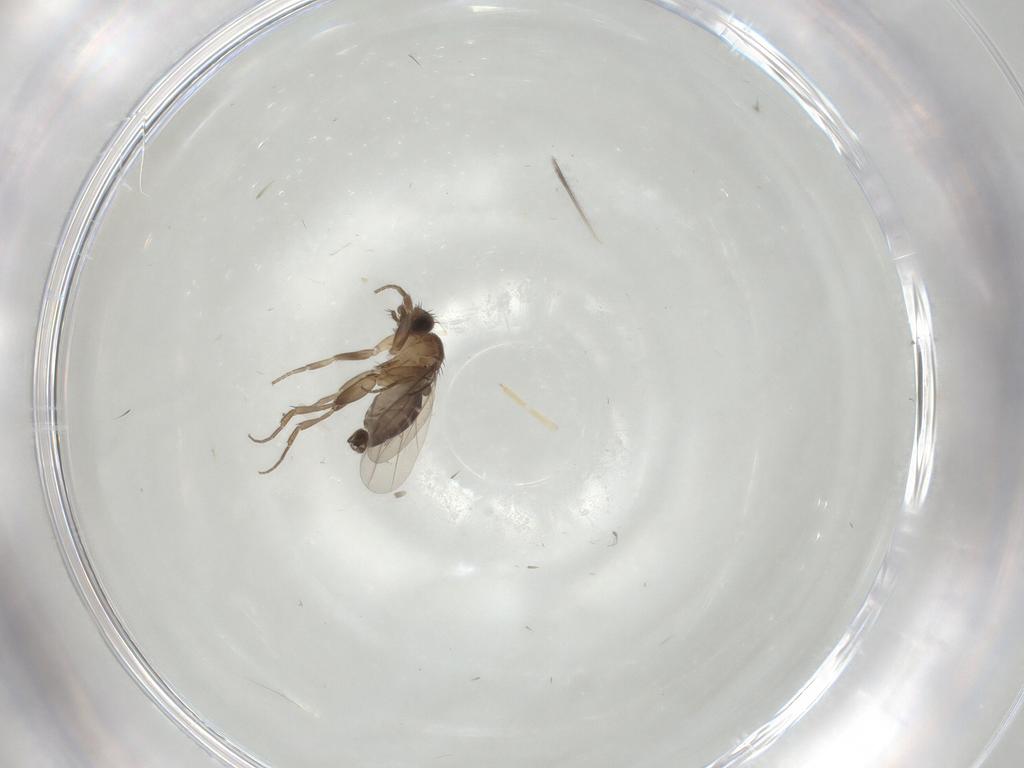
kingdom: Animalia
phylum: Arthropoda
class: Insecta
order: Diptera
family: Phoridae
